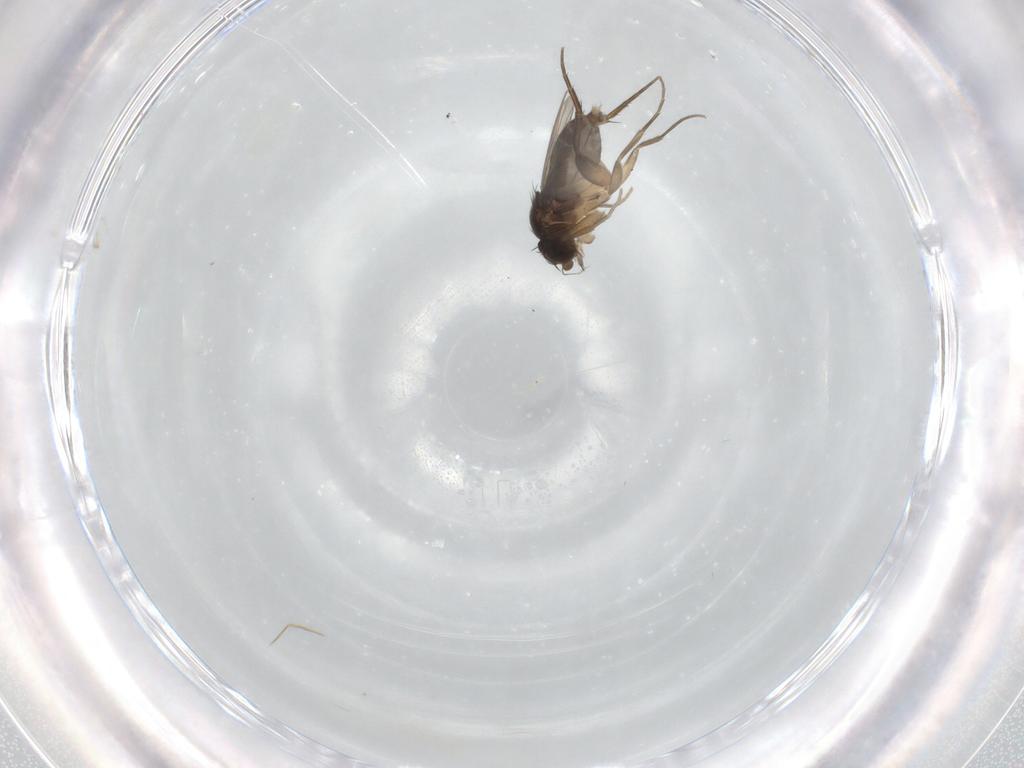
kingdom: Animalia
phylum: Arthropoda
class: Insecta
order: Diptera
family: Phoridae
